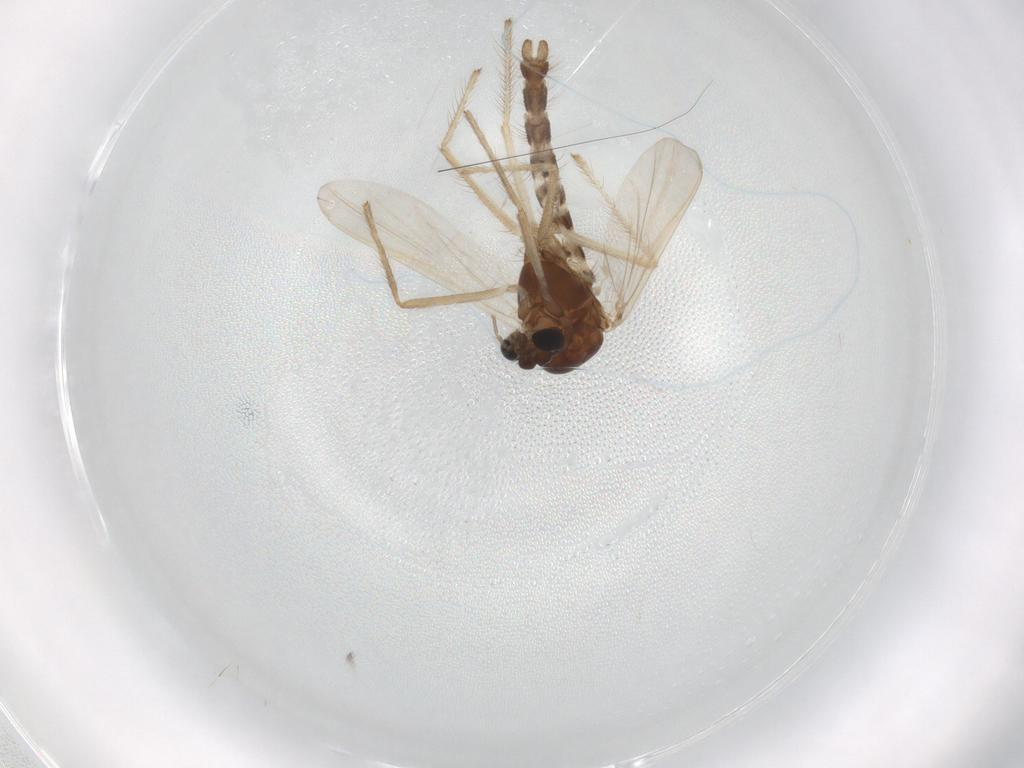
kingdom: Animalia
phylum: Arthropoda
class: Insecta
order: Diptera
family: Chironomidae
